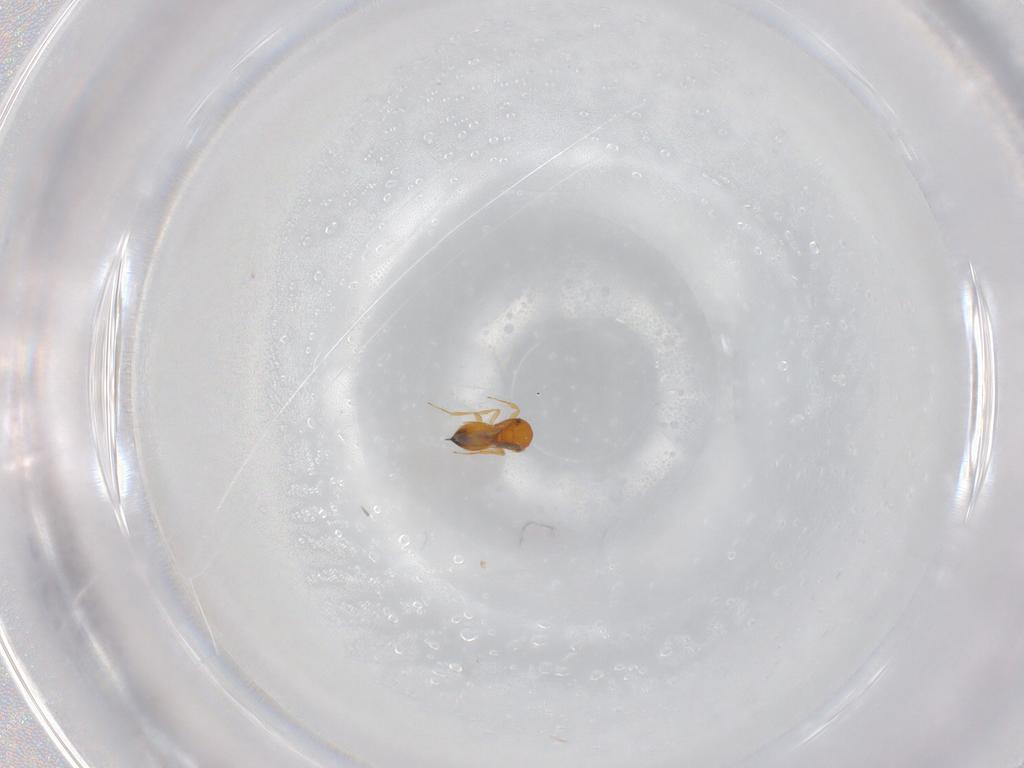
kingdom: Animalia
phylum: Arthropoda
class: Insecta
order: Hymenoptera
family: Scelionidae
